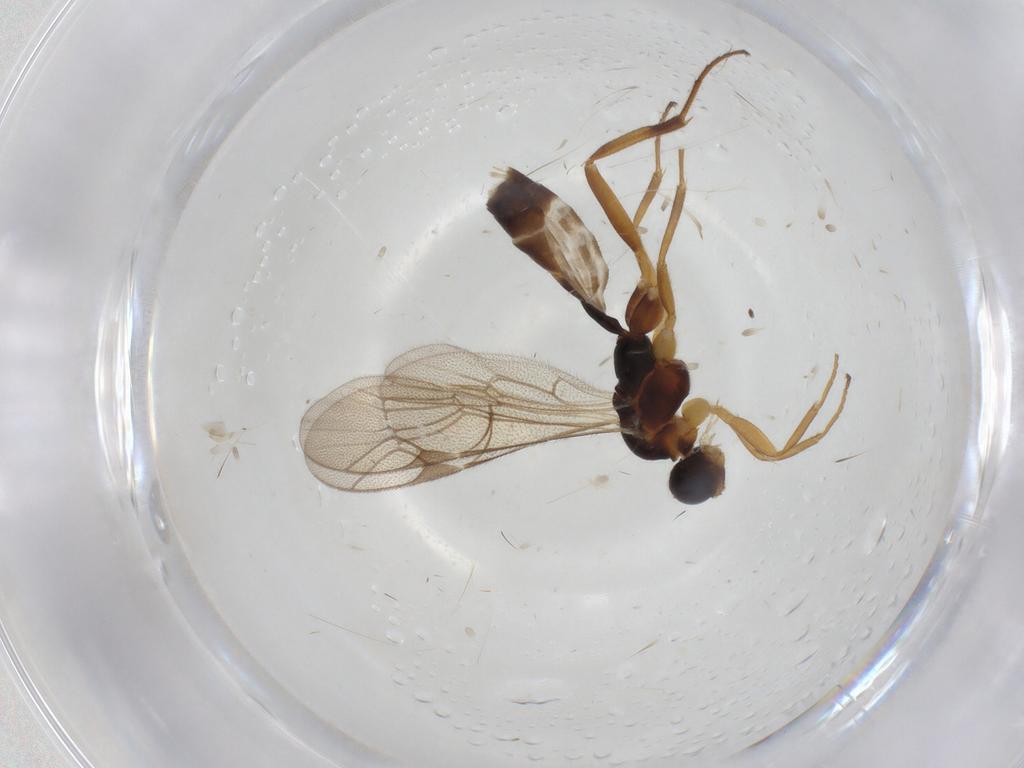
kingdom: Animalia
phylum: Arthropoda
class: Insecta
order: Hymenoptera
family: Ichneumonidae
